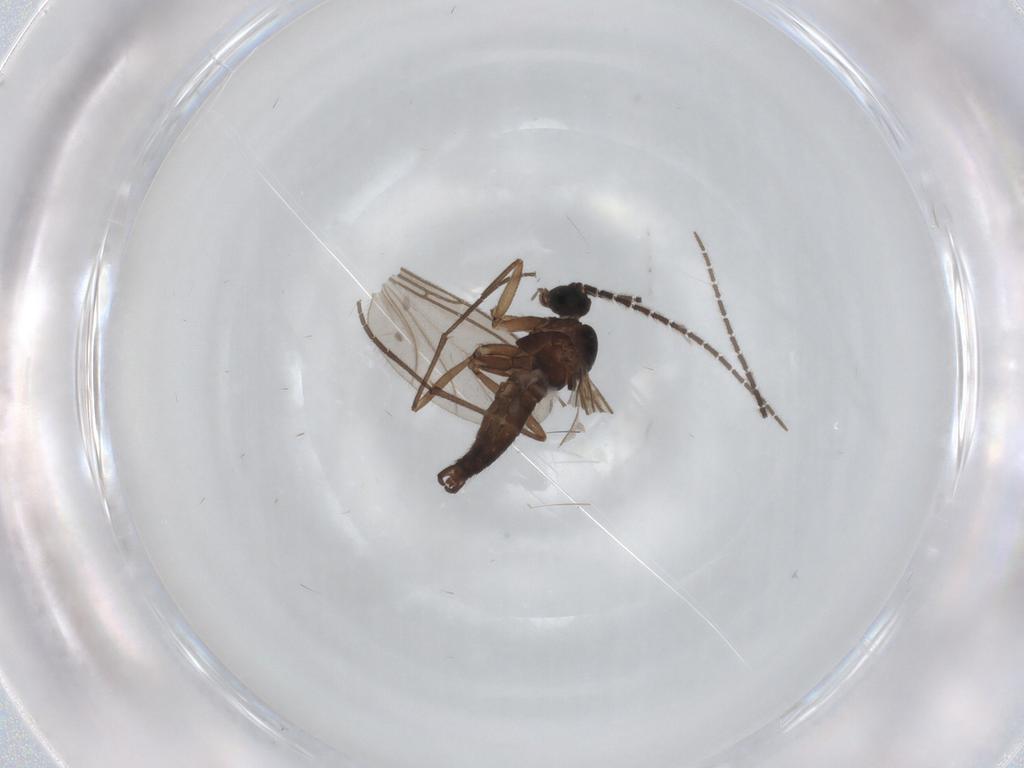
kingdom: Animalia
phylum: Arthropoda
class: Insecta
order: Diptera
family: Sciaridae
